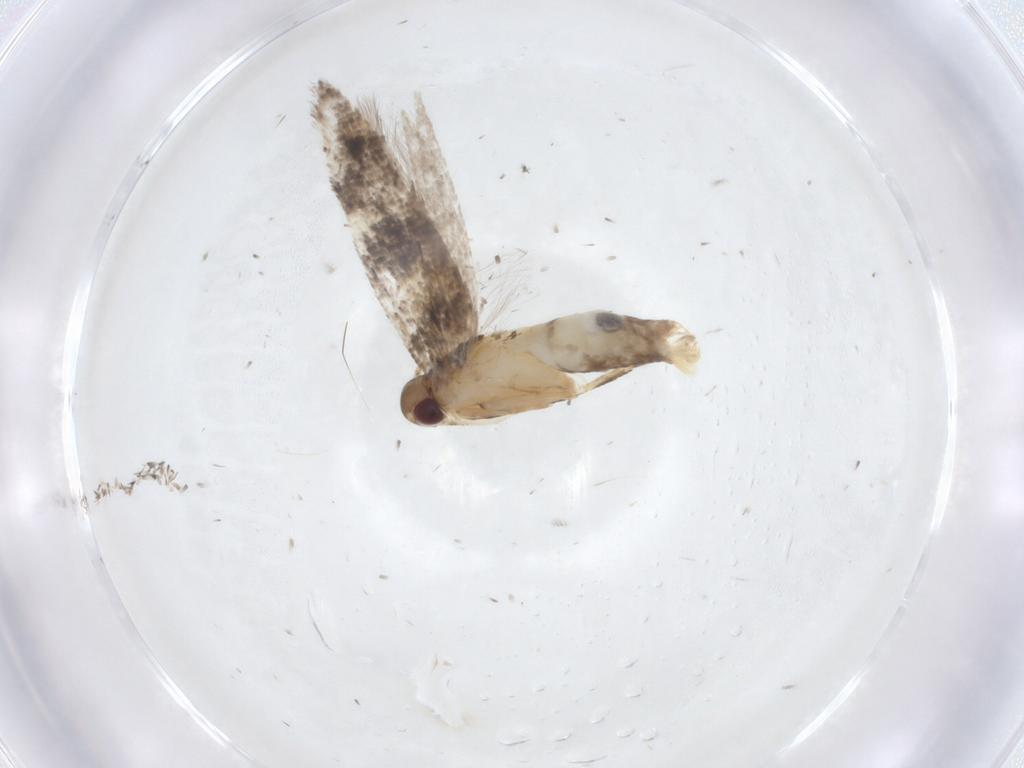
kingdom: Animalia
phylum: Arthropoda
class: Insecta
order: Lepidoptera
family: Cosmopterigidae
